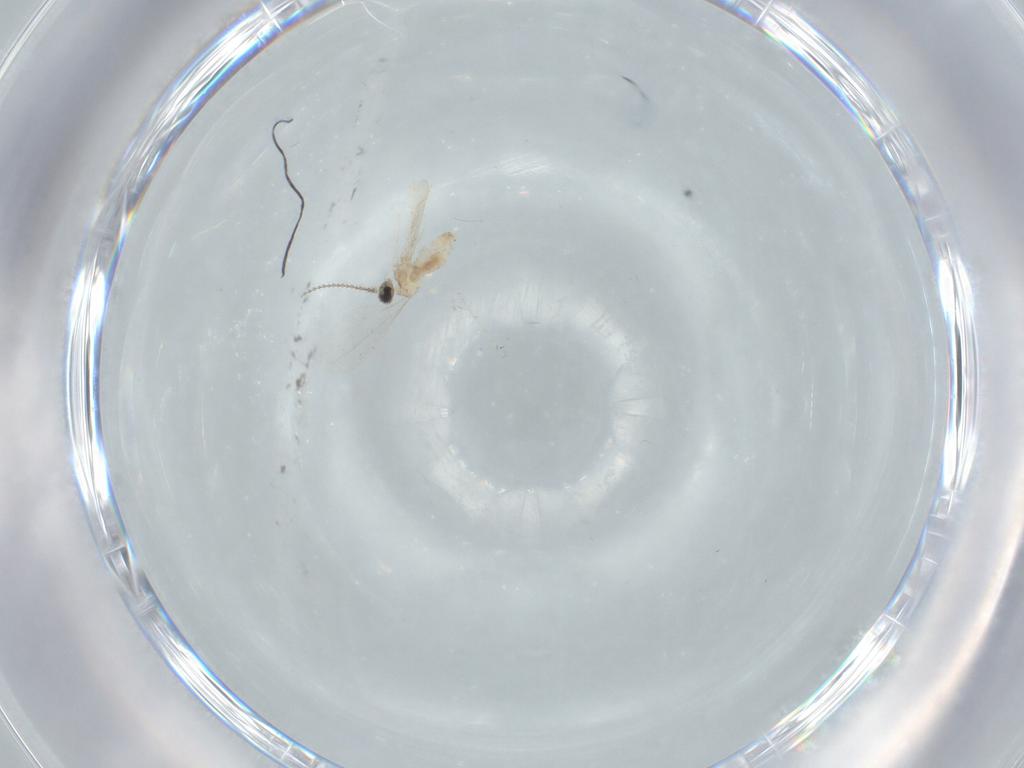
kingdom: Animalia
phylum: Arthropoda
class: Insecta
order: Diptera
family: Cecidomyiidae
